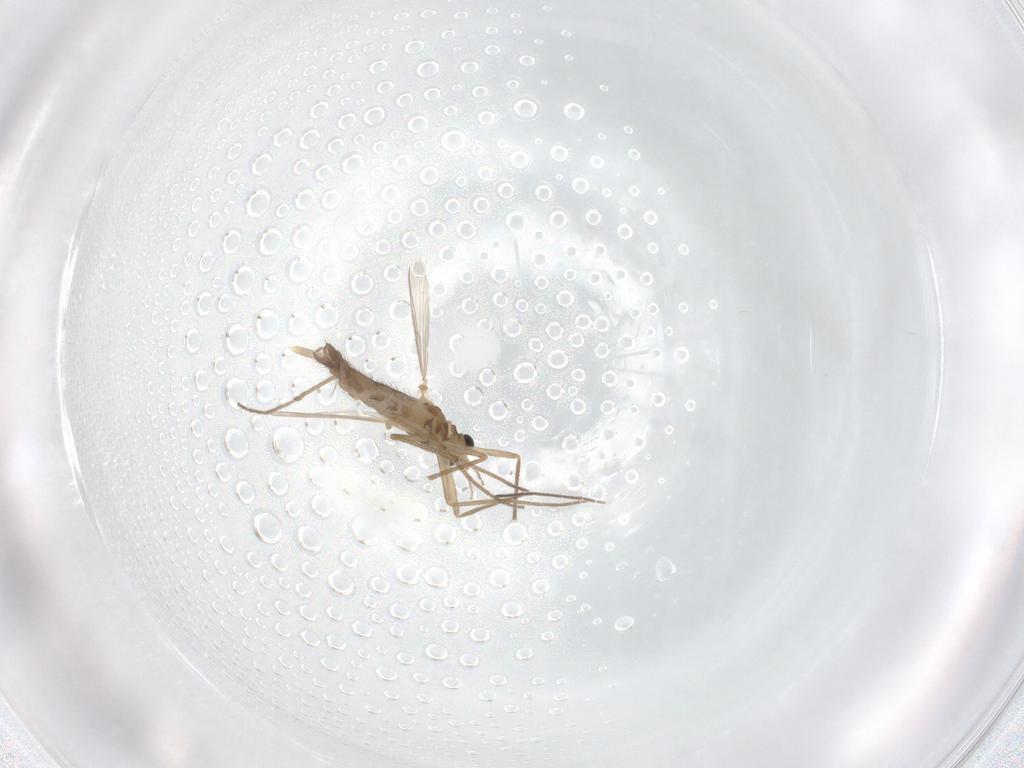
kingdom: Animalia
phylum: Arthropoda
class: Insecta
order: Diptera
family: Chironomidae
